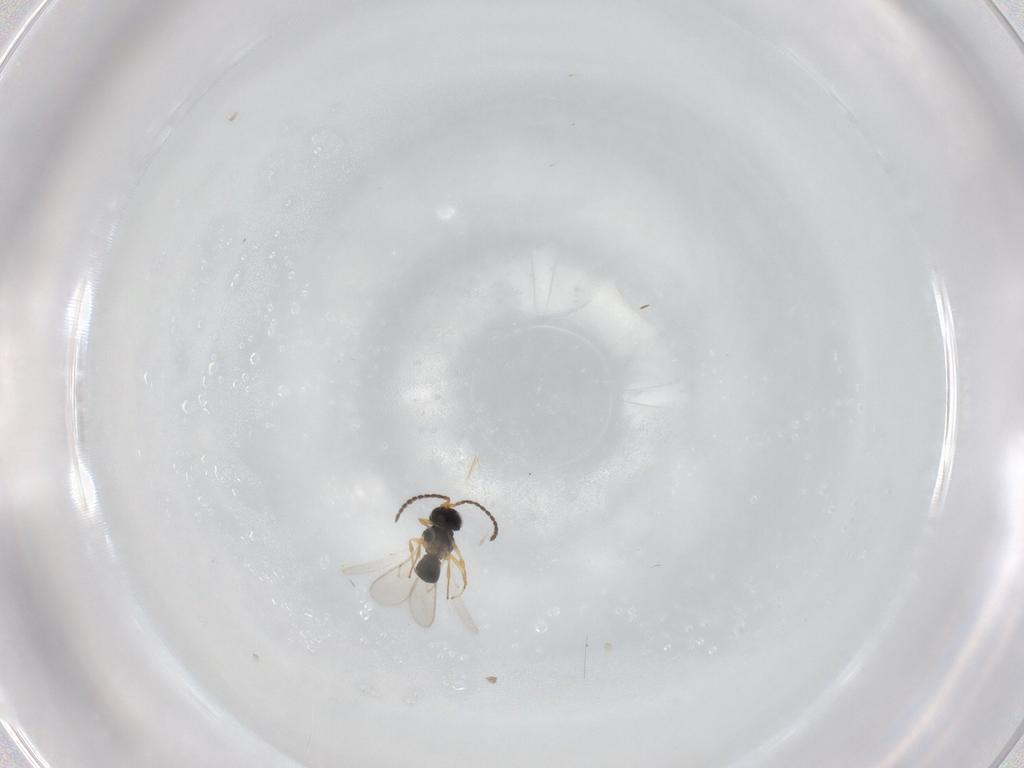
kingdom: Animalia
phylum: Arthropoda
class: Insecta
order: Hymenoptera
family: Scelionidae
